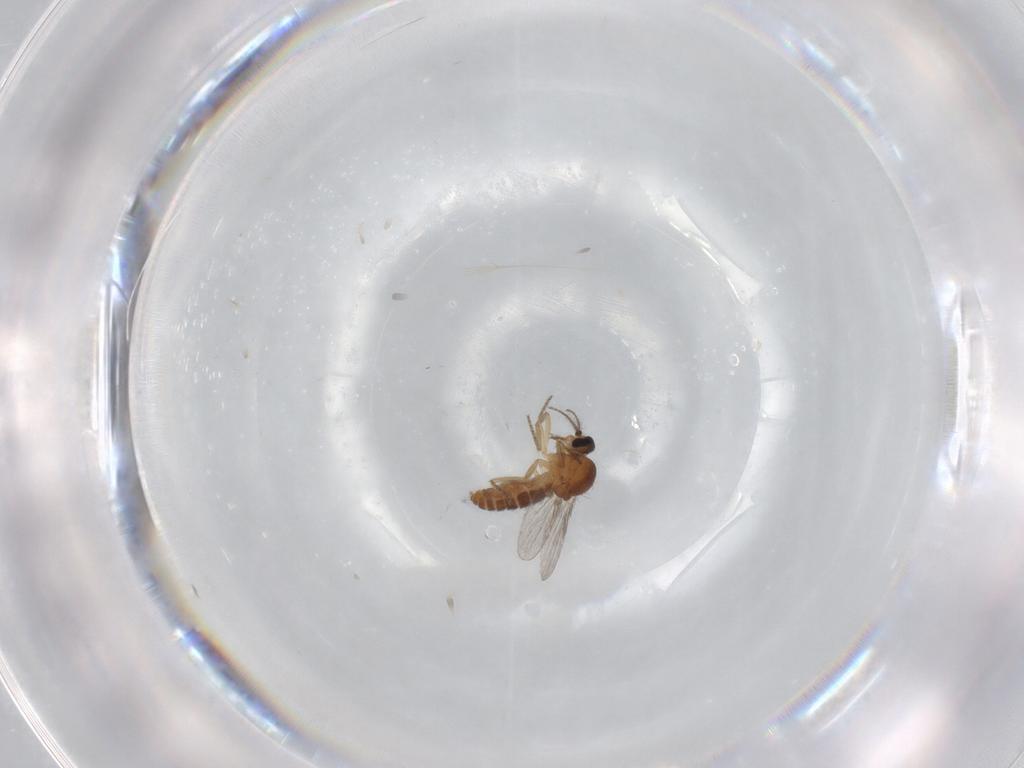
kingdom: Animalia
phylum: Arthropoda
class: Insecta
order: Diptera
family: Ceratopogonidae
